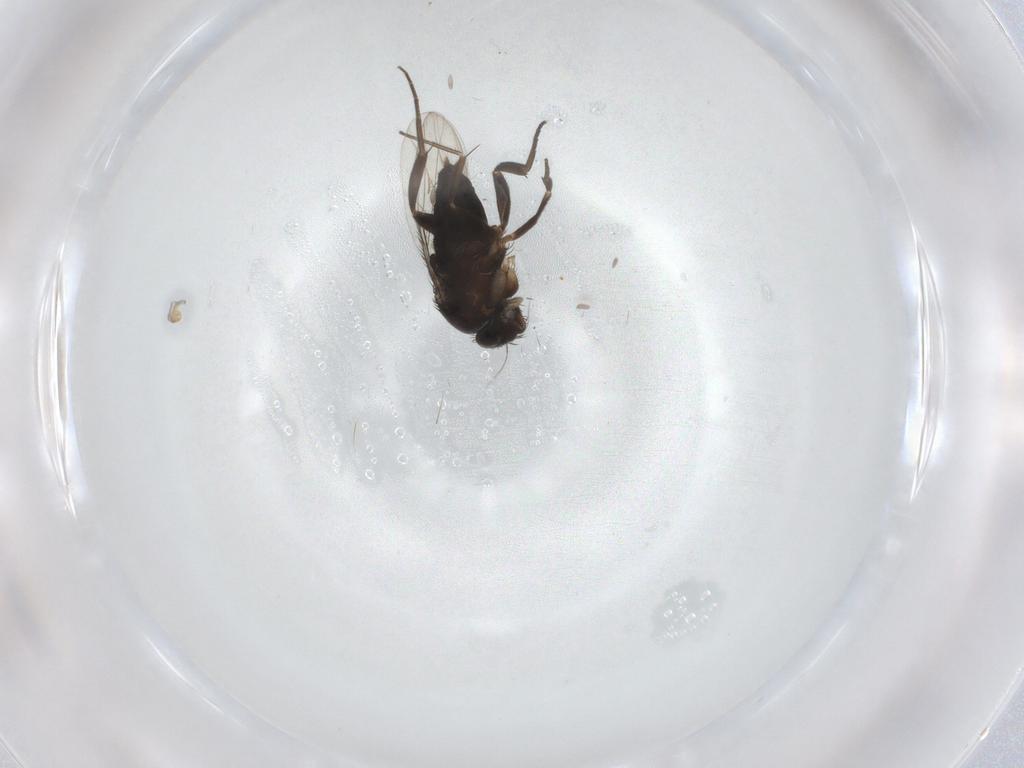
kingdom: Animalia
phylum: Arthropoda
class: Insecta
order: Diptera
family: Phoridae
